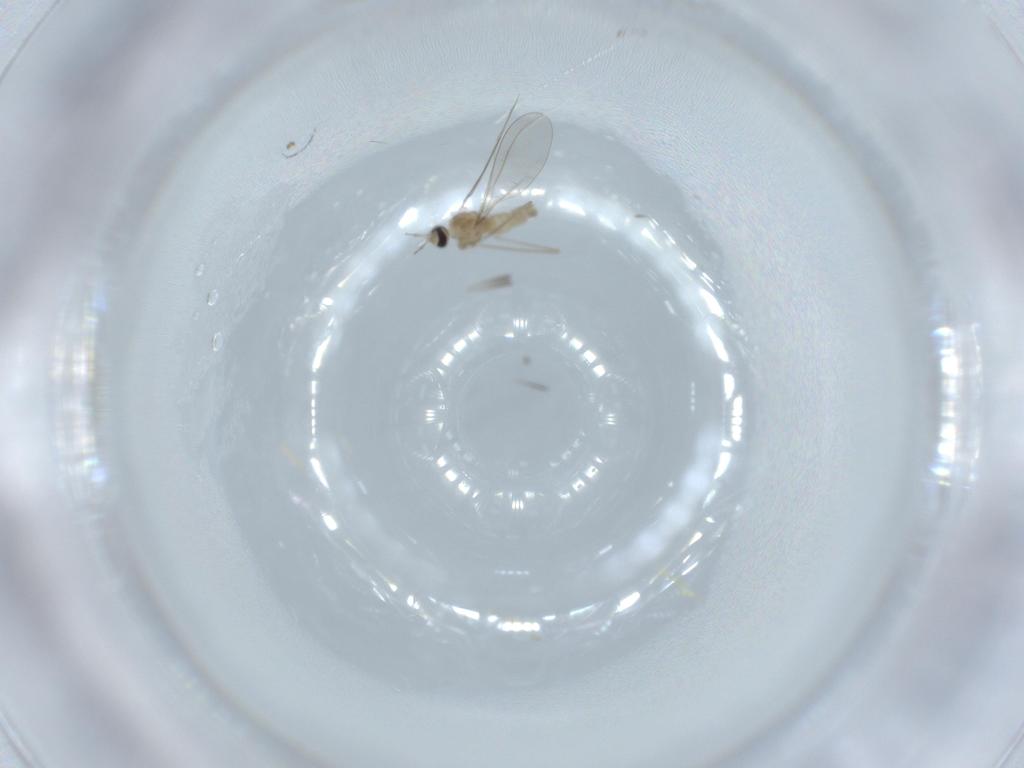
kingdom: Animalia
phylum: Arthropoda
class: Insecta
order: Diptera
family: Cecidomyiidae
